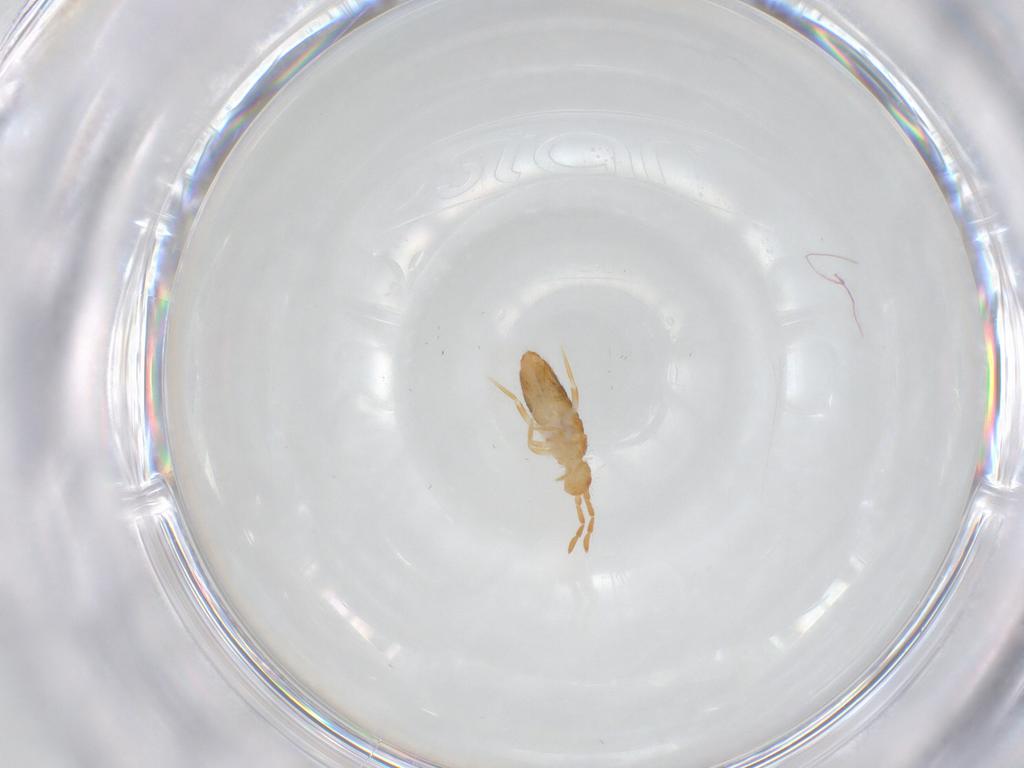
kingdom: Animalia
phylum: Arthropoda
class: Collembola
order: Entomobryomorpha
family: Entomobryidae
